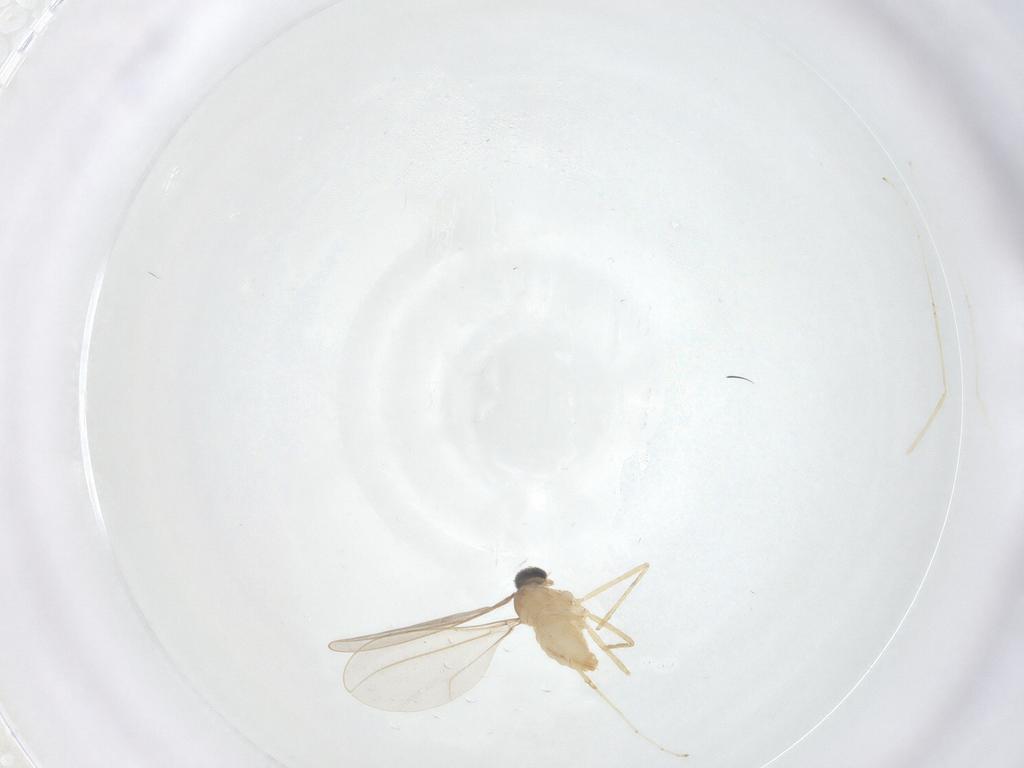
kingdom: Animalia
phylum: Arthropoda
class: Insecta
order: Diptera
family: Cecidomyiidae
